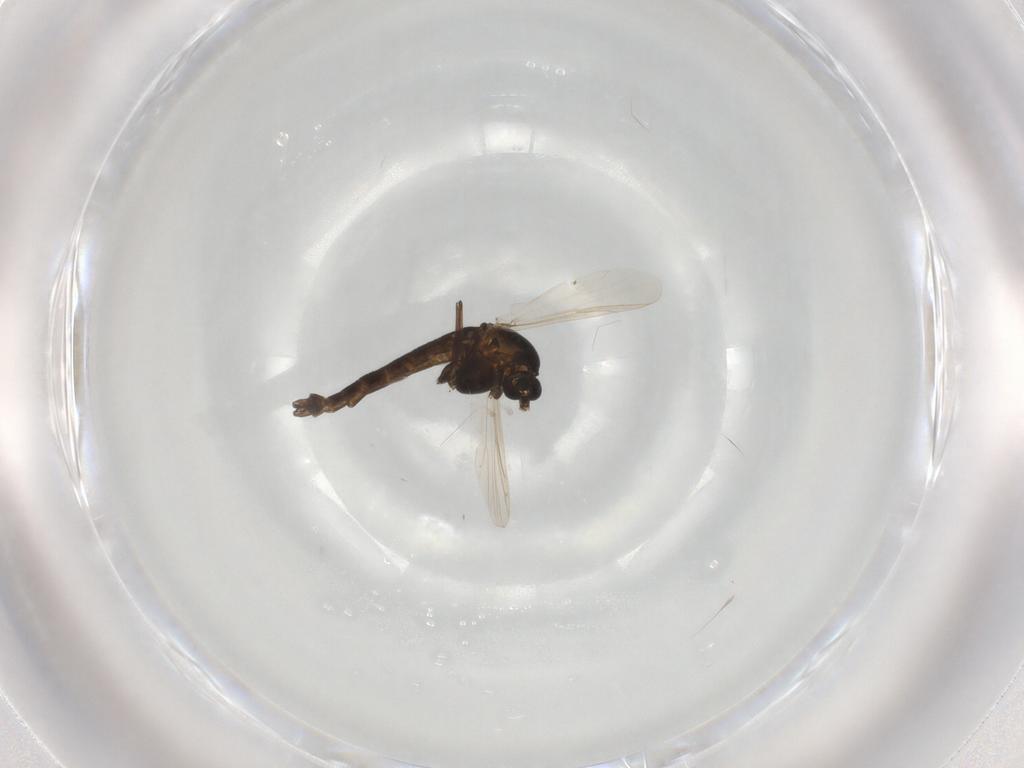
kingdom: Animalia
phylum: Arthropoda
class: Insecta
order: Diptera
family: Chironomidae
